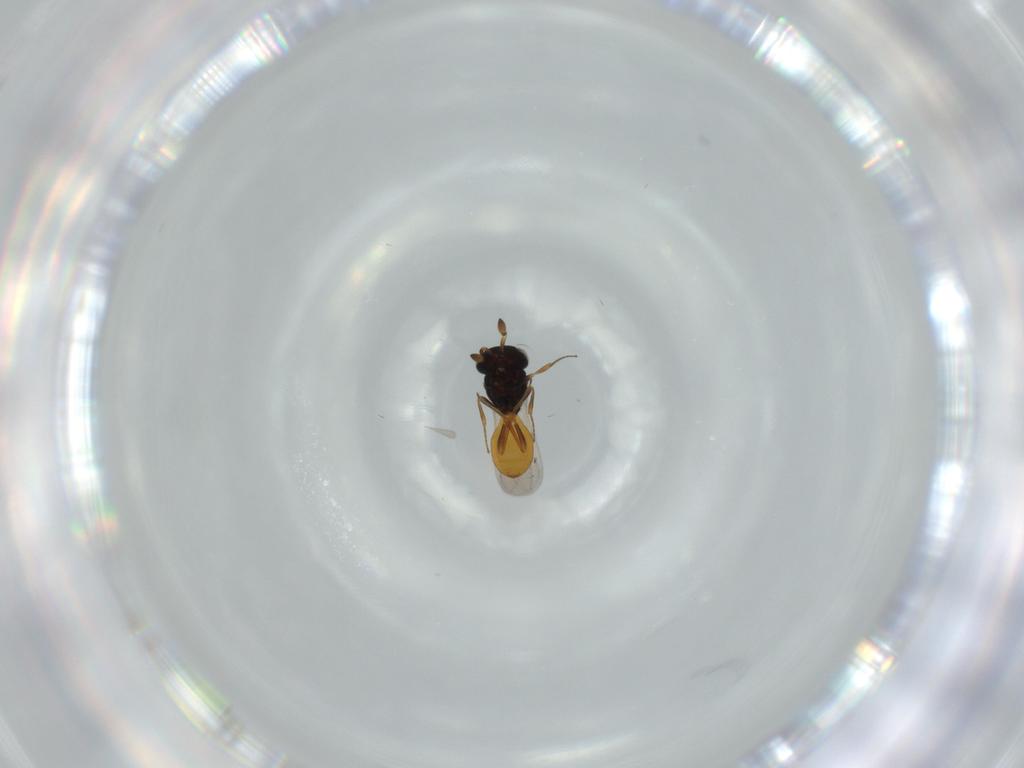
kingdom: Animalia
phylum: Arthropoda
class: Insecta
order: Hymenoptera
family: Scelionidae
